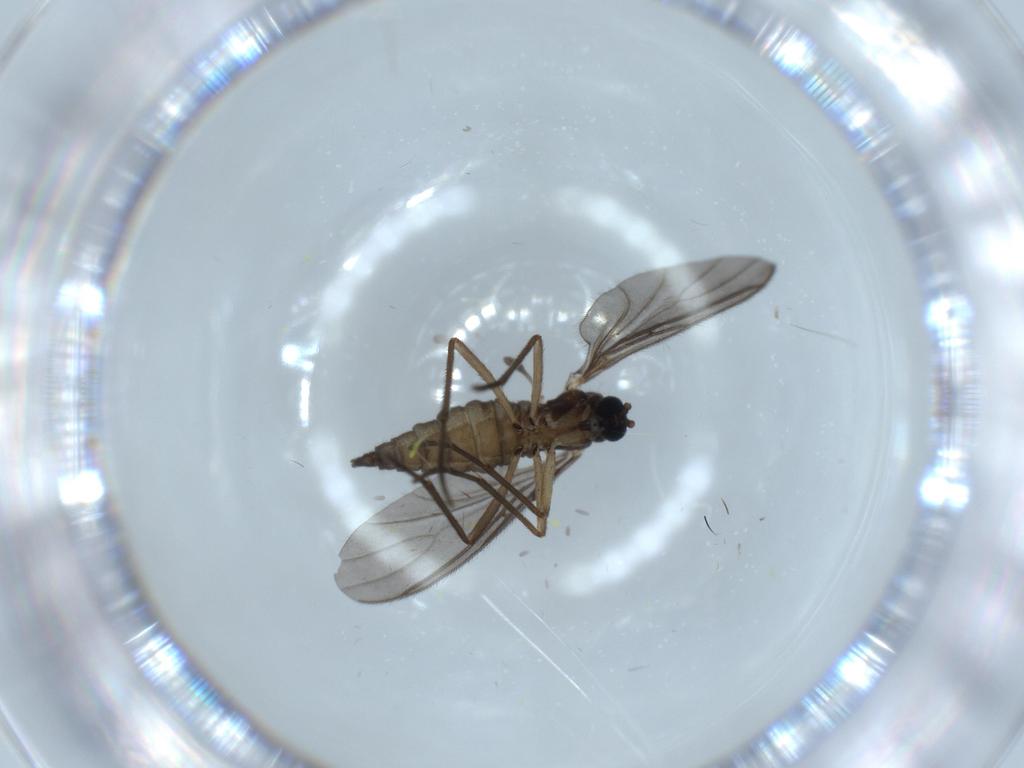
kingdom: Animalia
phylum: Arthropoda
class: Insecta
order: Diptera
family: Sciaridae
